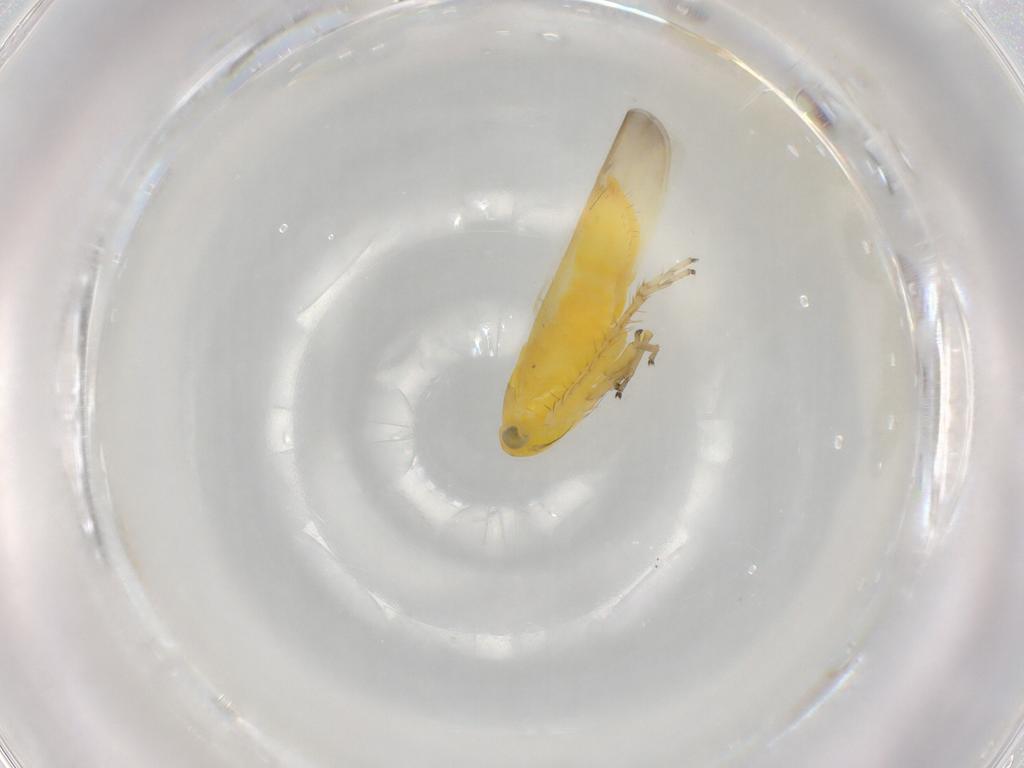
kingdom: Animalia
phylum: Arthropoda
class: Insecta
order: Hemiptera
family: Cicadellidae
